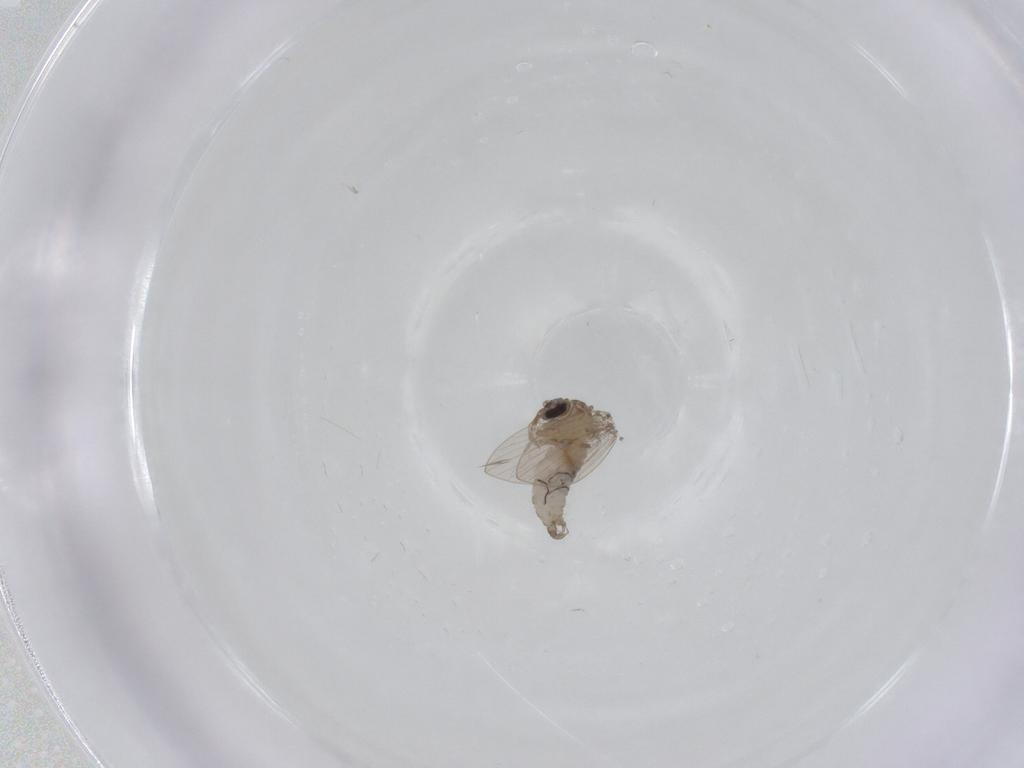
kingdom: Animalia
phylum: Arthropoda
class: Insecta
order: Diptera
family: Psychodidae
